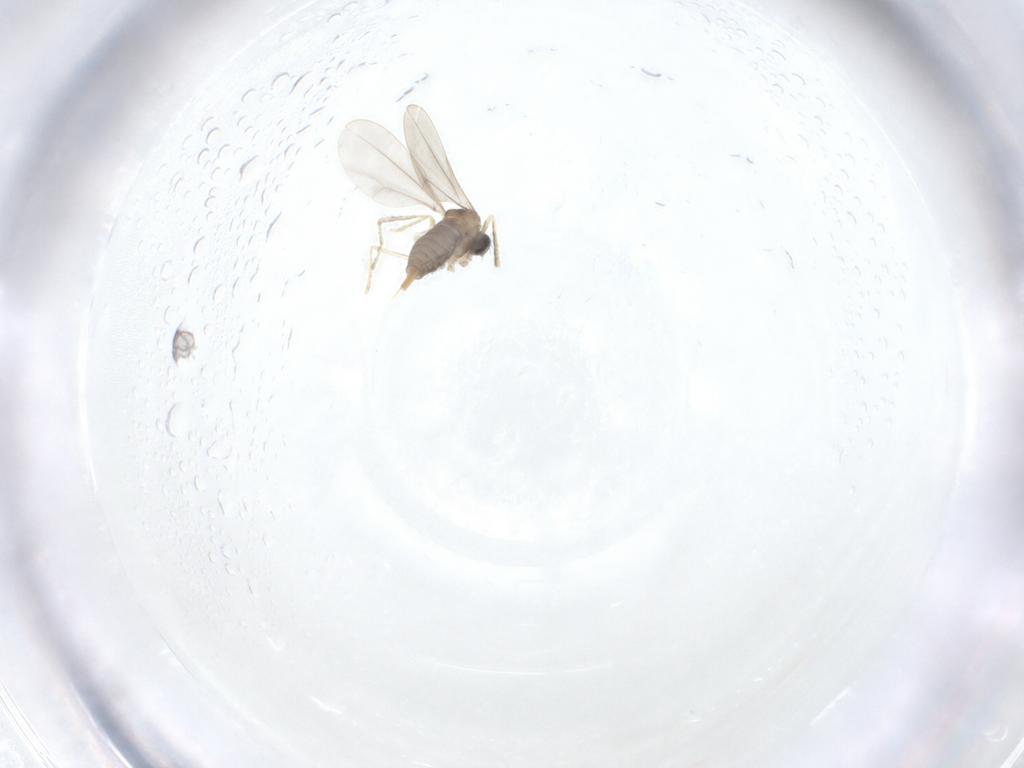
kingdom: Animalia
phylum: Arthropoda
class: Insecta
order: Diptera
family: Cecidomyiidae
